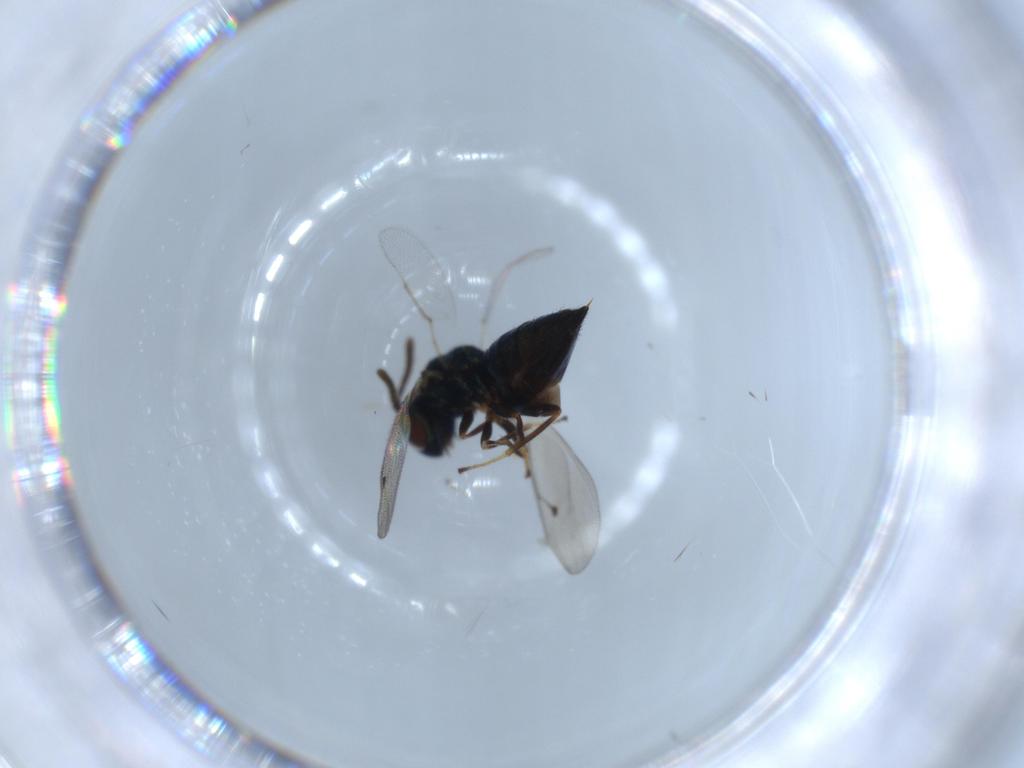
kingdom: Animalia
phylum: Arthropoda
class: Insecta
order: Hymenoptera
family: Pteromalidae
